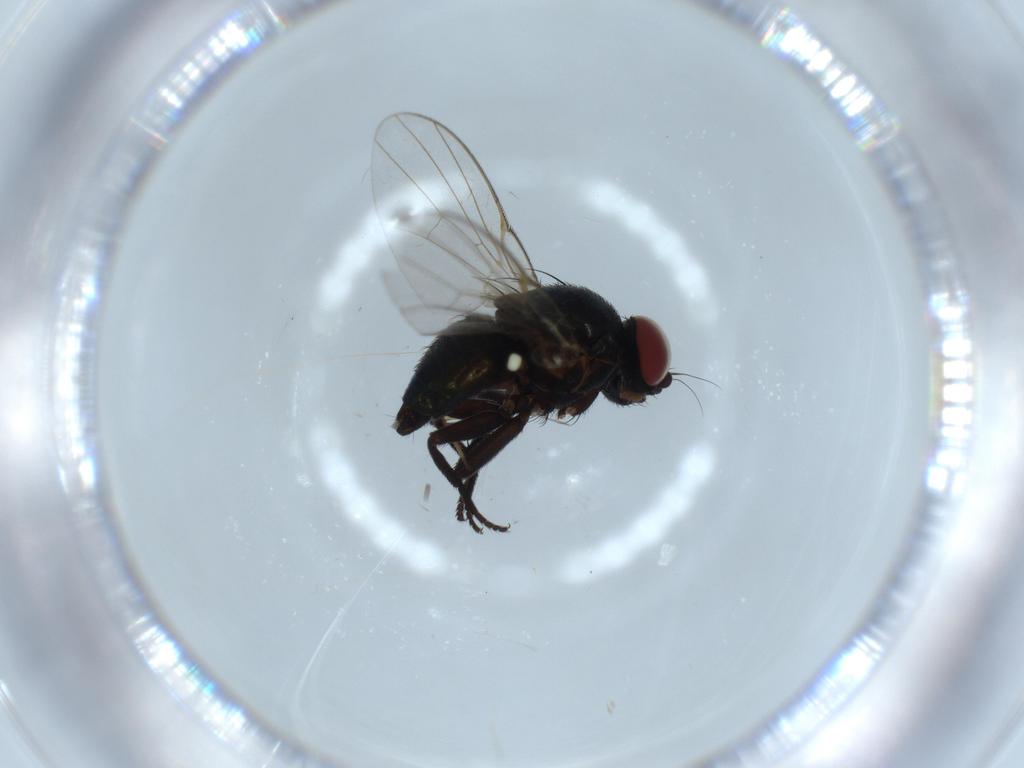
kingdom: Animalia
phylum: Arthropoda
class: Insecta
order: Diptera
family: Agromyzidae
